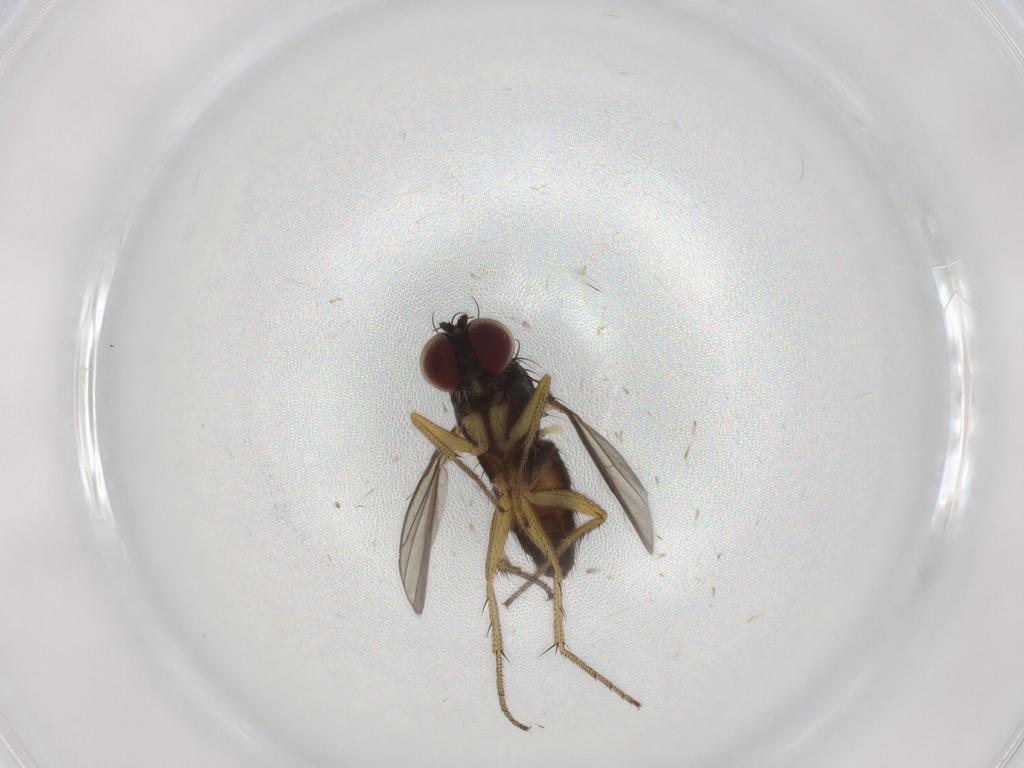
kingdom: Animalia
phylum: Arthropoda
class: Insecta
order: Diptera
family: Dolichopodidae
